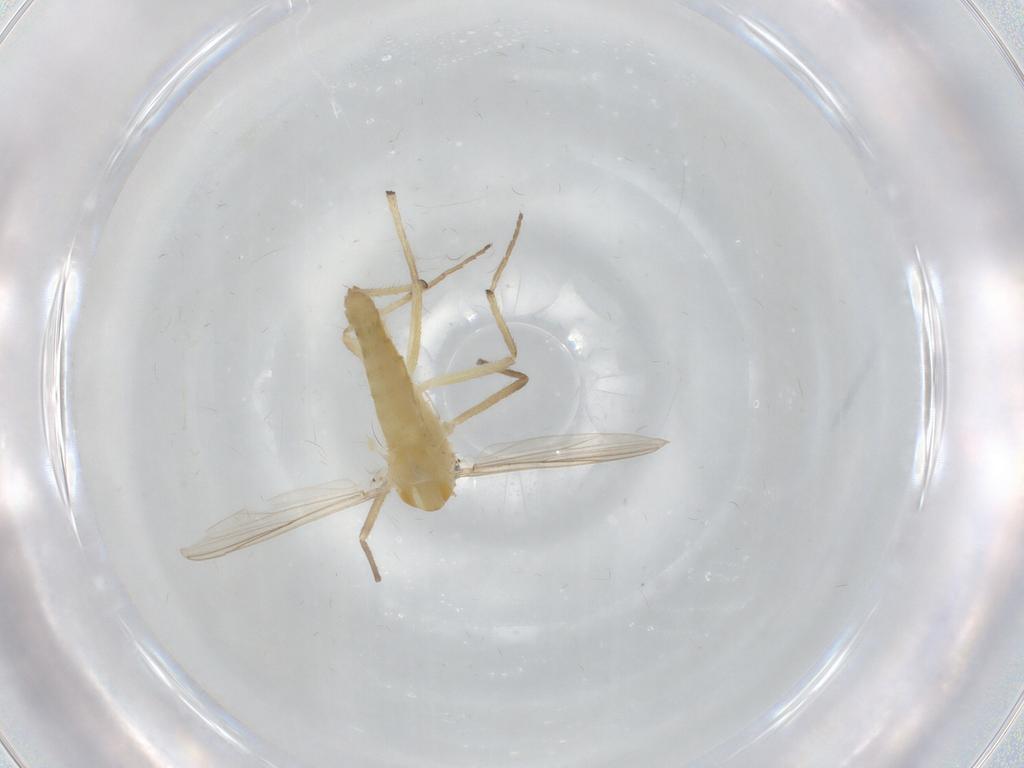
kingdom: Animalia
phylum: Arthropoda
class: Insecta
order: Diptera
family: Chironomidae
